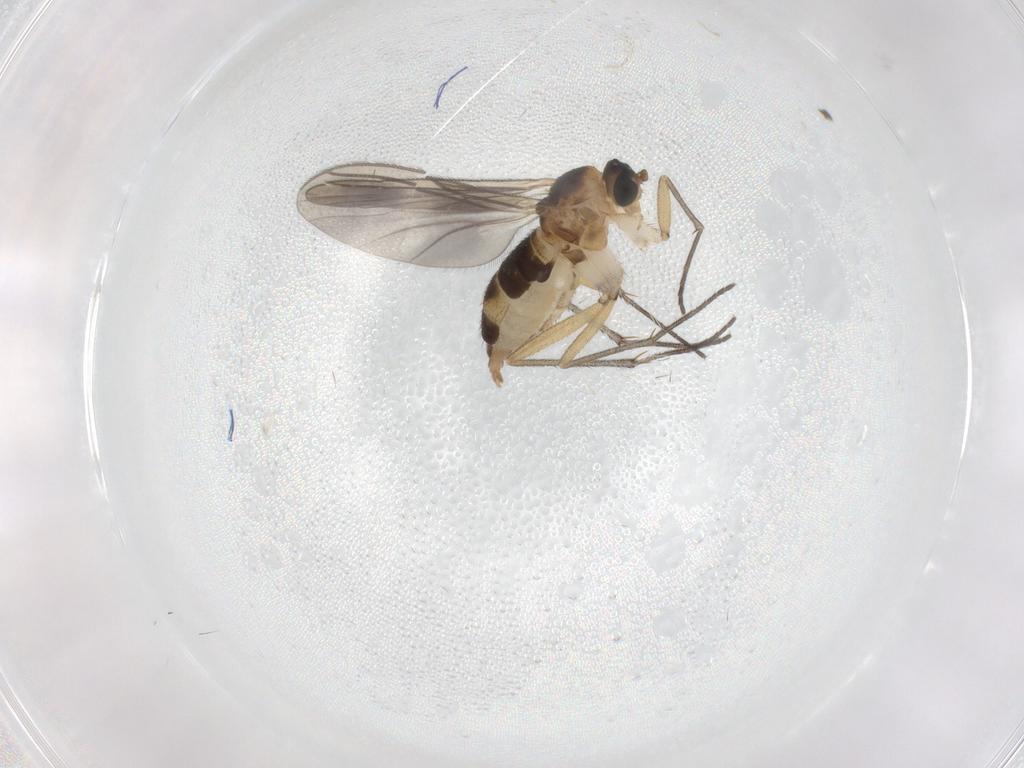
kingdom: Animalia
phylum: Arthropoda
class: Insecta
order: Diptera
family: Sciaridae
